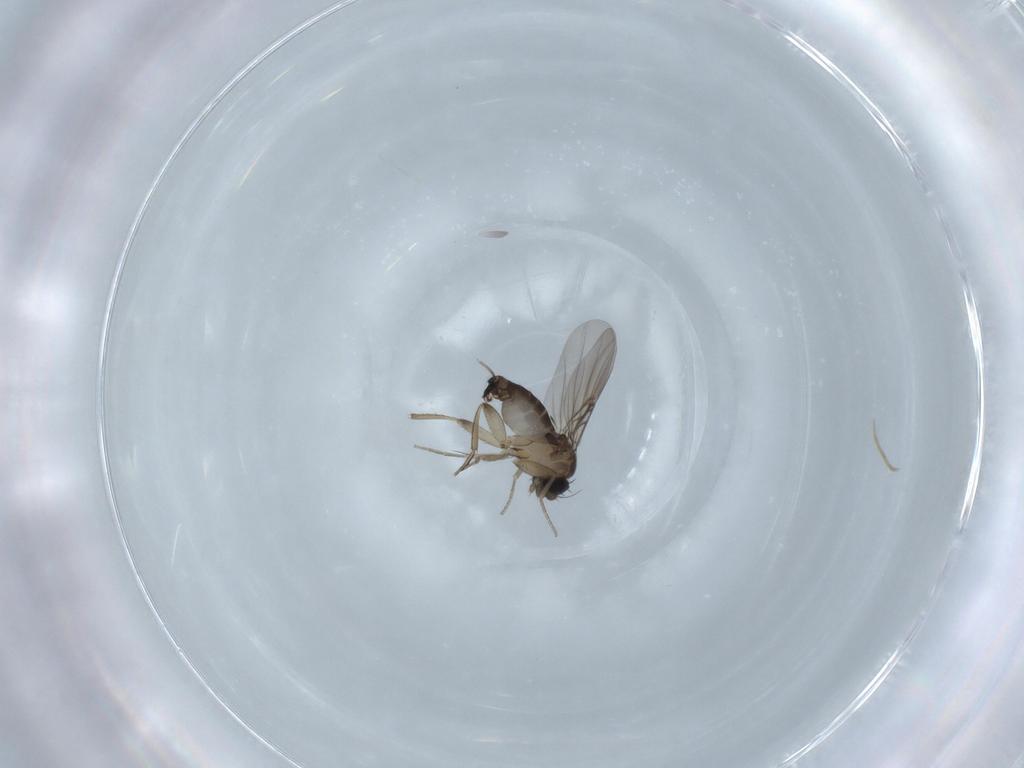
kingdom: Animalia
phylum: Arthropoda
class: Insecta
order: Diptera
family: Phoridae
